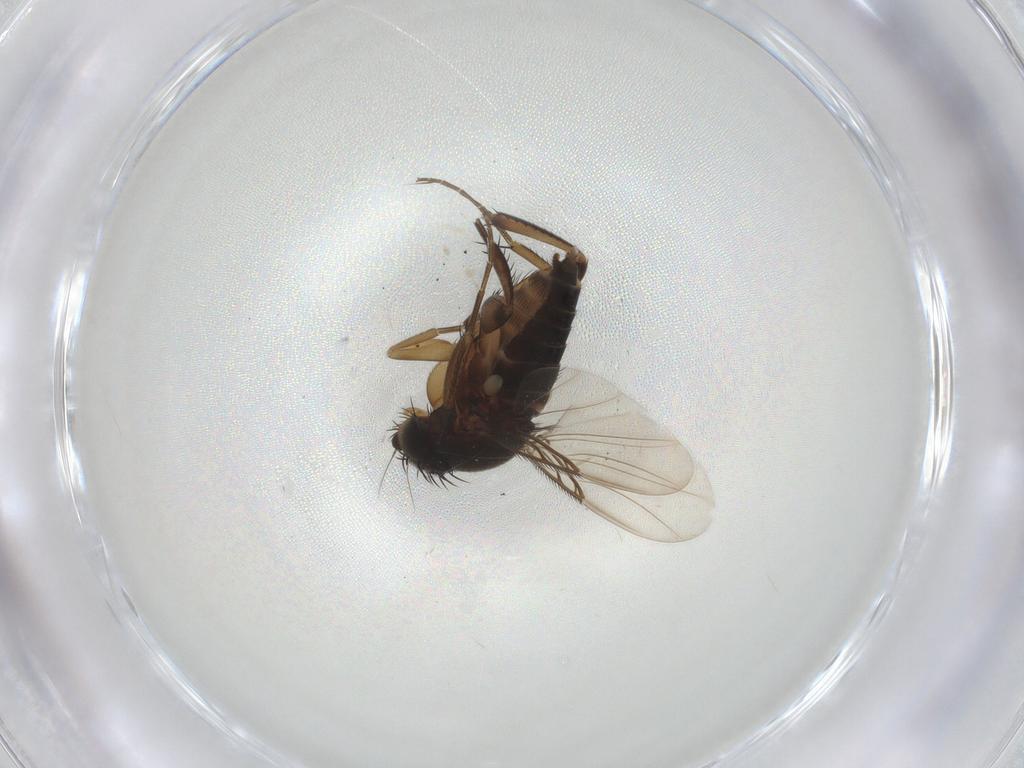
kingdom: Animalia
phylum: Arthropoda
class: Insecta
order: Diptera
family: Phoridae
